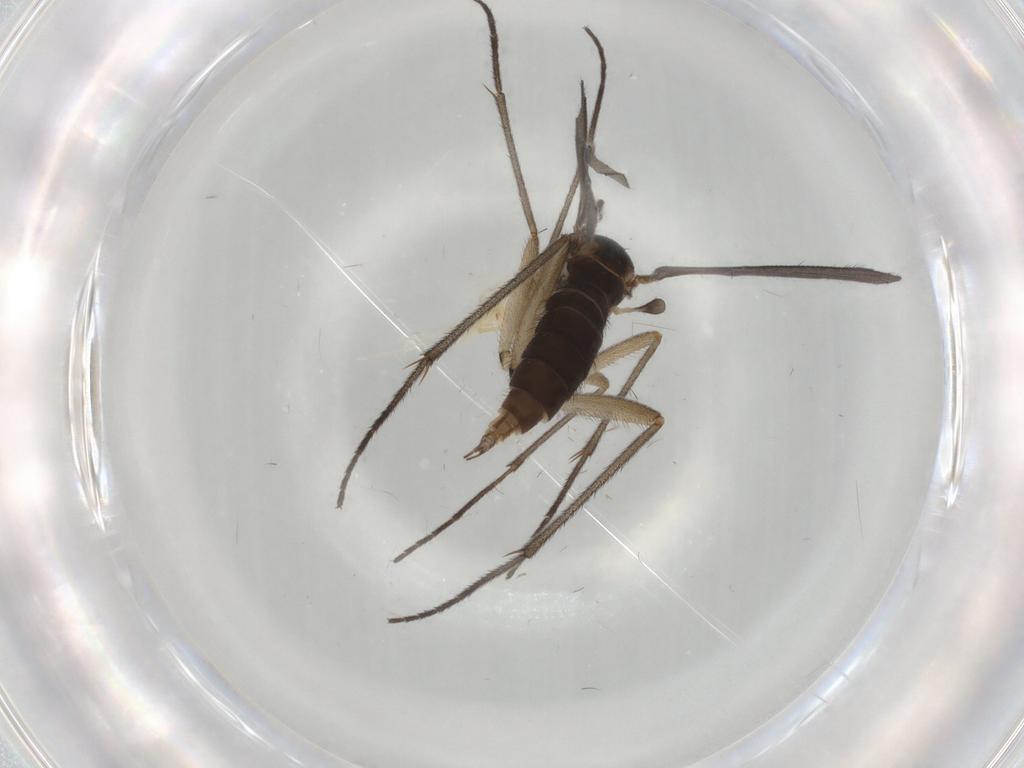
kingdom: Animalia
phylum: Arthropoda
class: Insecta
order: Diptera
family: Sciaridae
